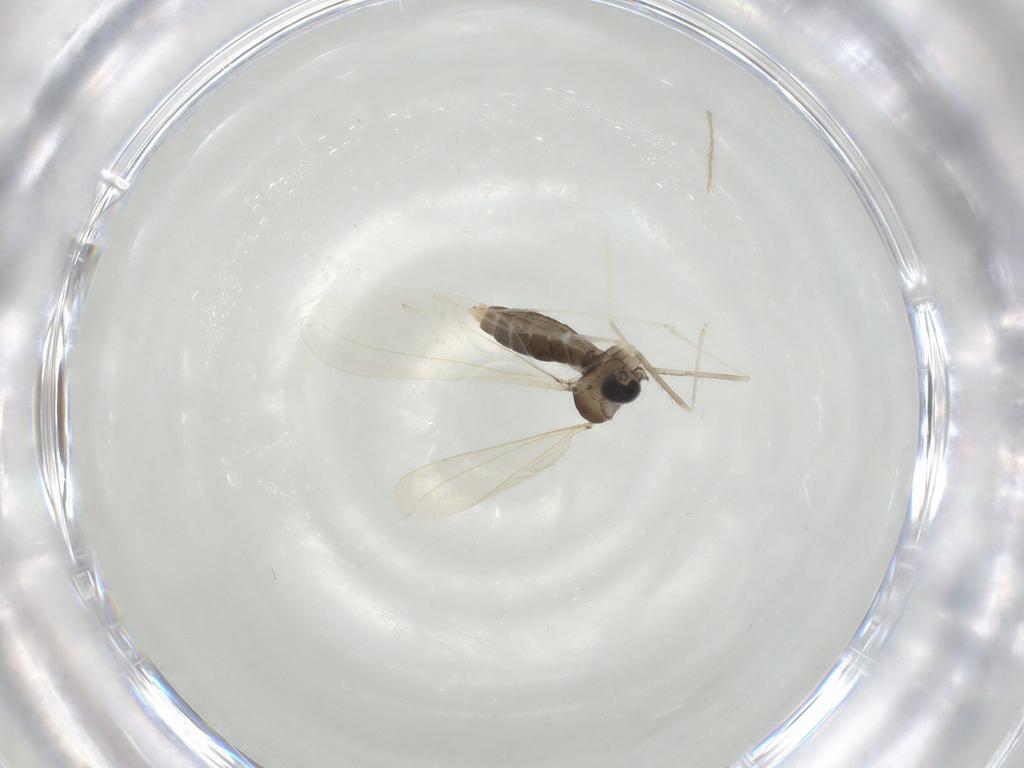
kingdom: Animalia
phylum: Arthropoda
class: Insecta
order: Diptera
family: Cecidomyiidae
